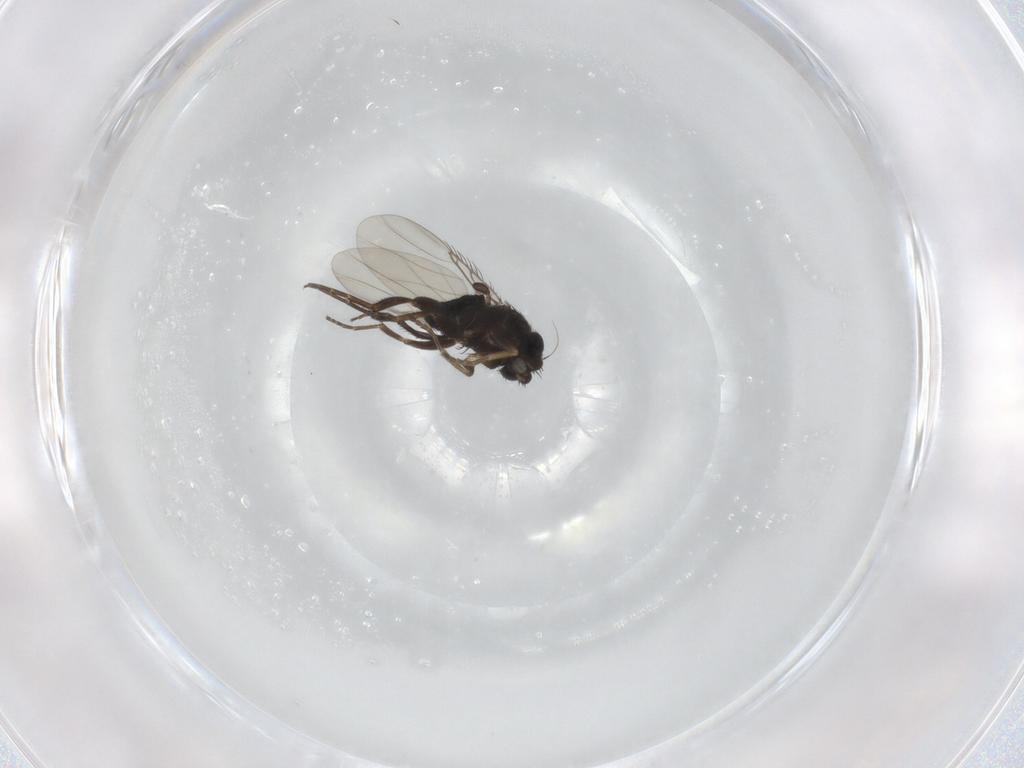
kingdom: Animalia
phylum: Arthropoda
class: Insecta
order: Diptera
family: Phoridae
